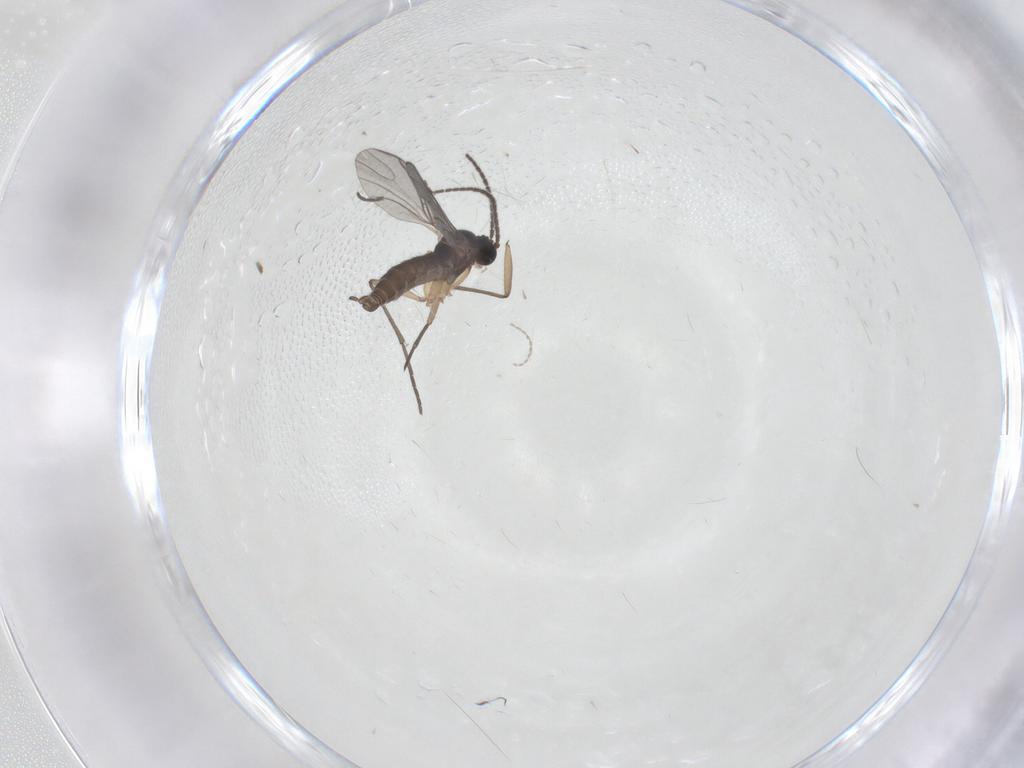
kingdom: Animalia
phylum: Arthropoda
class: Insecta
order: Diptera
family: Sciaridae
